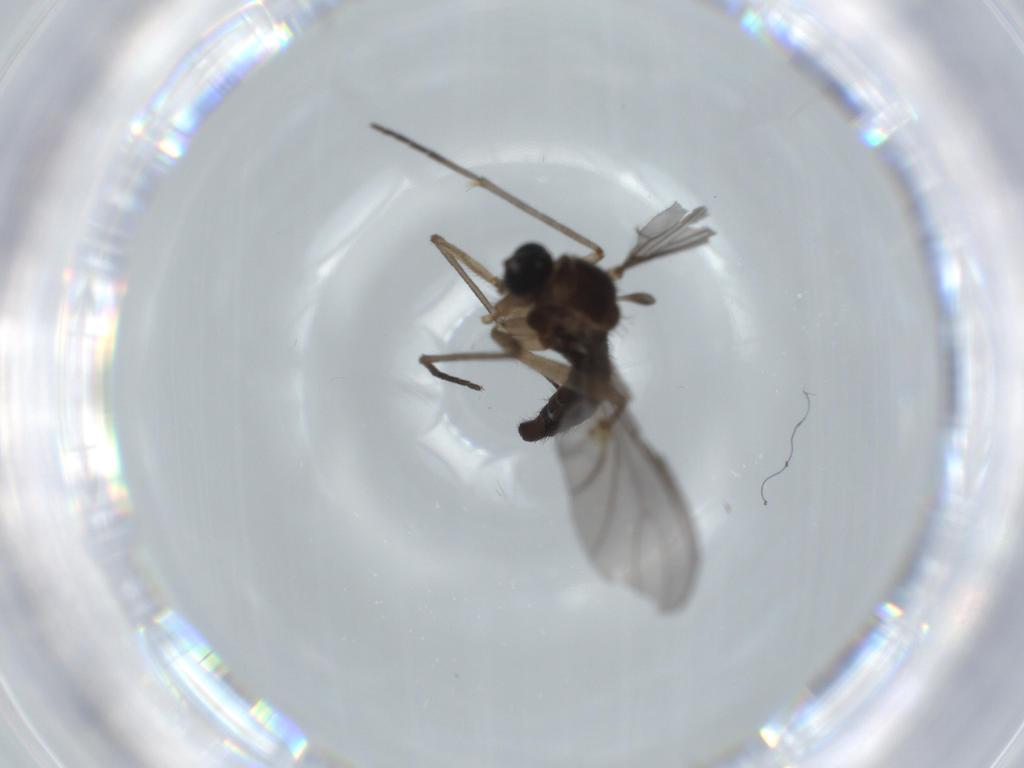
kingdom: Animalia
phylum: Arthropoda
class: Insecta
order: Diptera
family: Sciaridae
